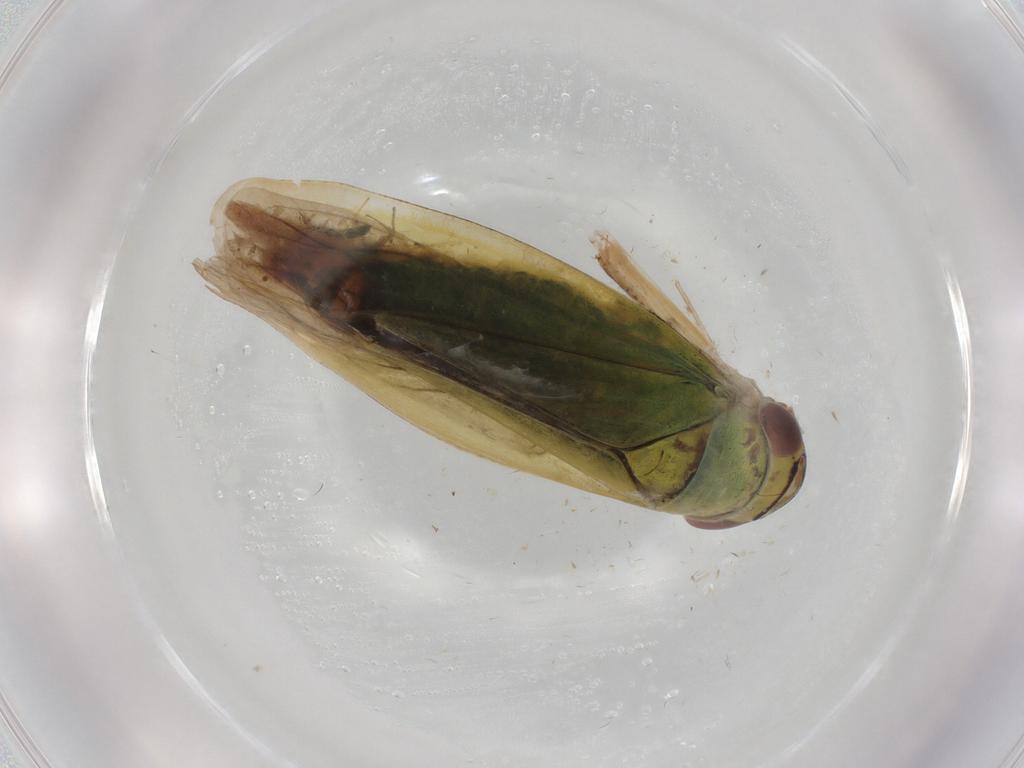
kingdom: Animalia
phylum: Arthropoda
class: Insecta
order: Hemiptera
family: Cicadellidae
